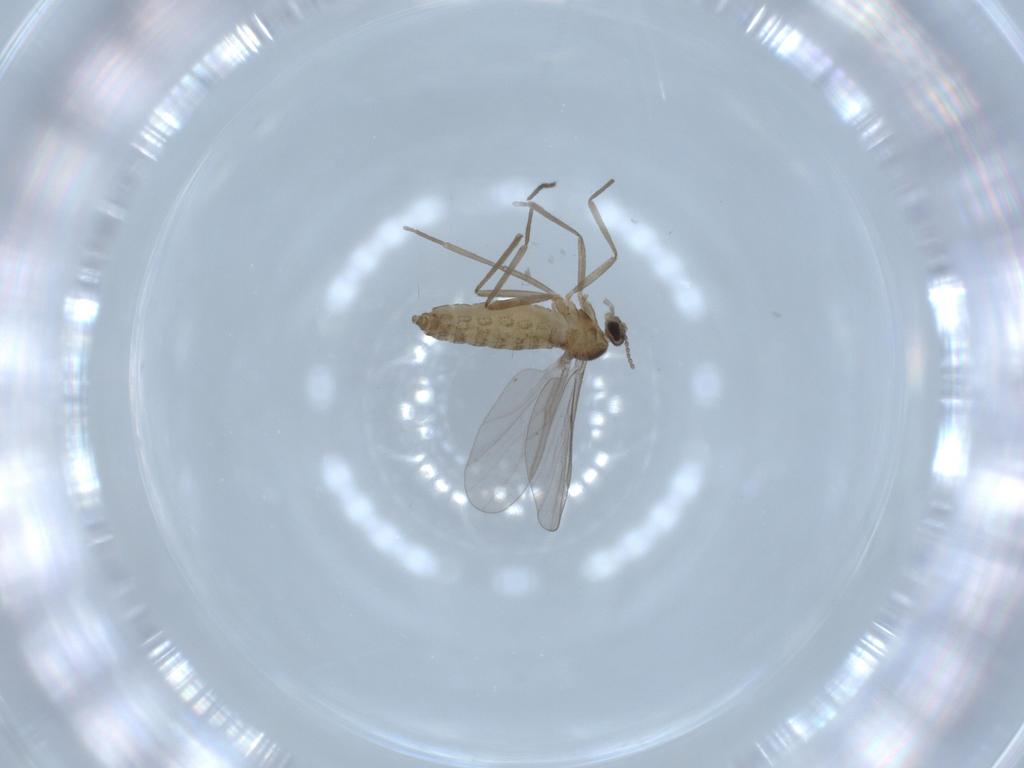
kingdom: Animalia
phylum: Arthropoda
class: Insecta
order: Diptera
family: Cecidomyiidae
